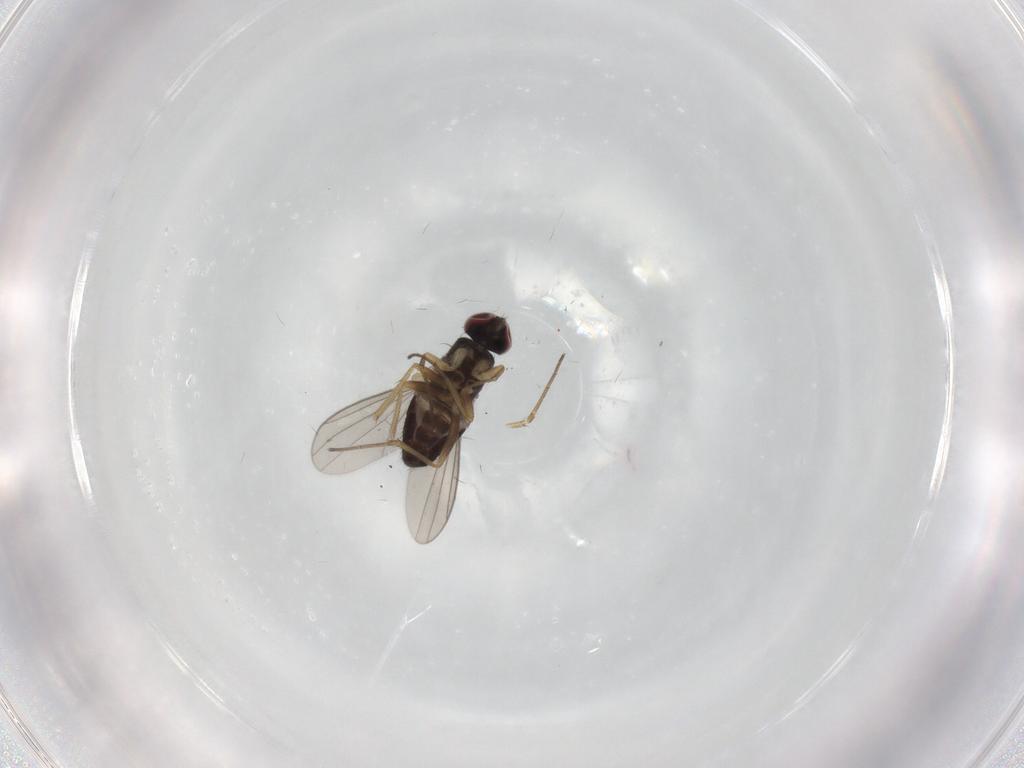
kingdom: Animalia
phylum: Arthropoda
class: Insecta
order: Diptera
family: Dolichopodidae
